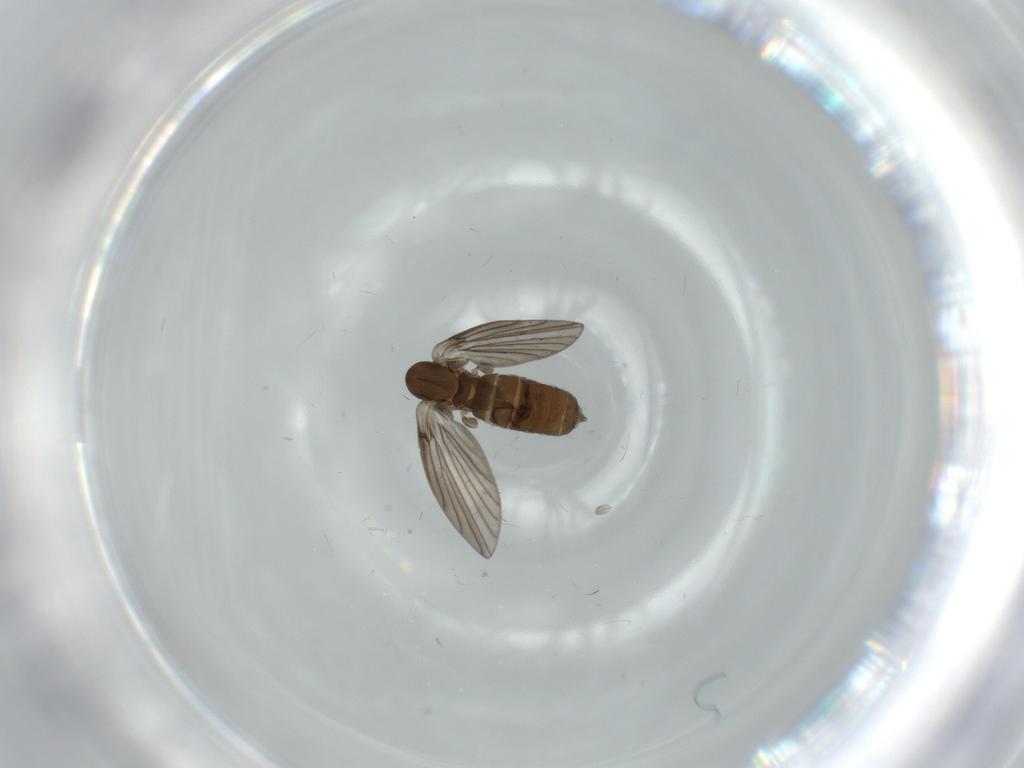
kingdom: Animalia
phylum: Arthropoda
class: Insecta
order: Diptera
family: Psychodidae
